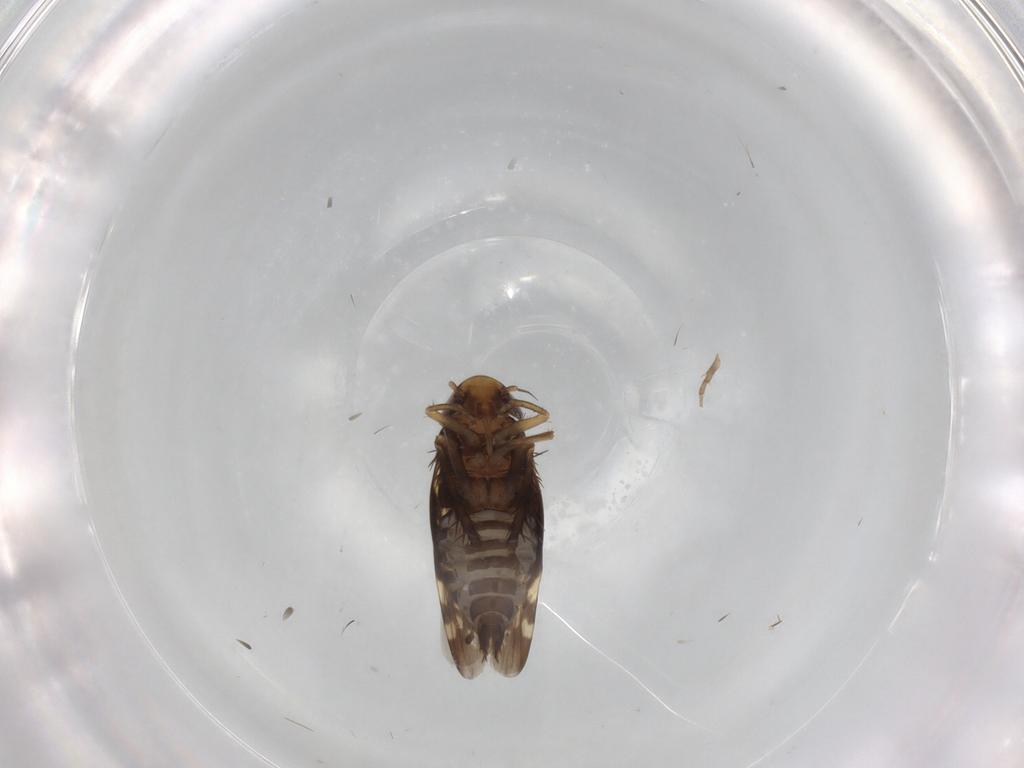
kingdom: Animalia
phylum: Arthropoda
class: Insecta
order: Hemiptera
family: Cicadellidae
